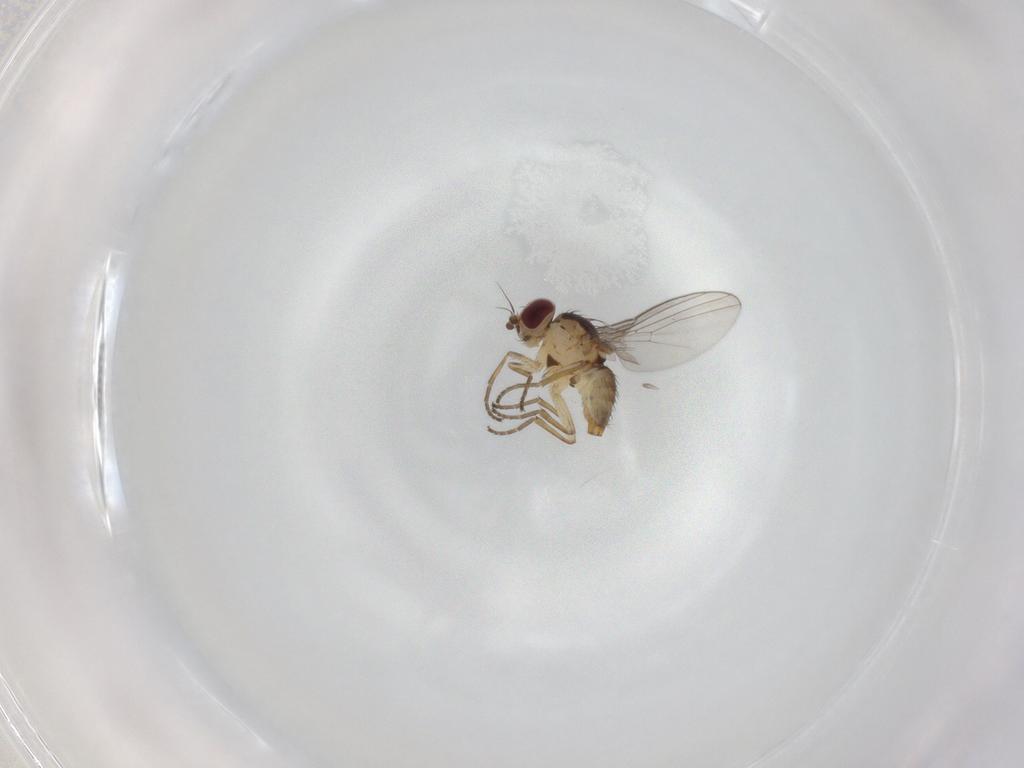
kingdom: Animalia
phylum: Arthropoda
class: Insecta
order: Diptera
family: Agromyzidae
